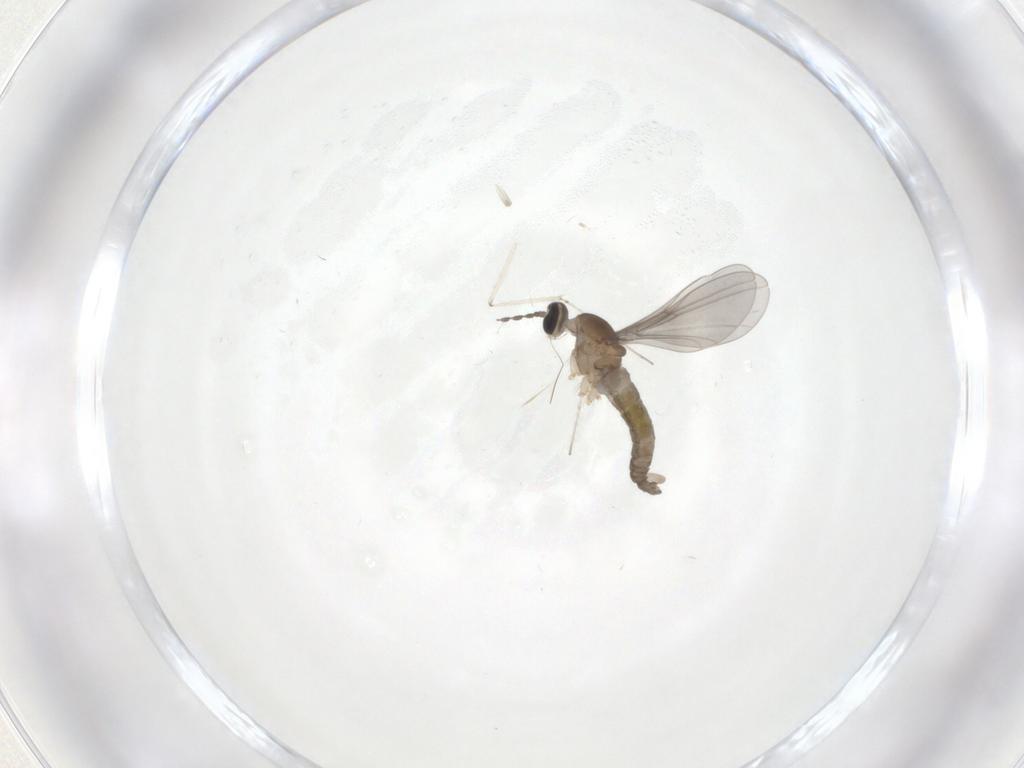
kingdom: Animalia
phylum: Arthropoda
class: Insecta
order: Diptera
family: Cecidomyiidae
